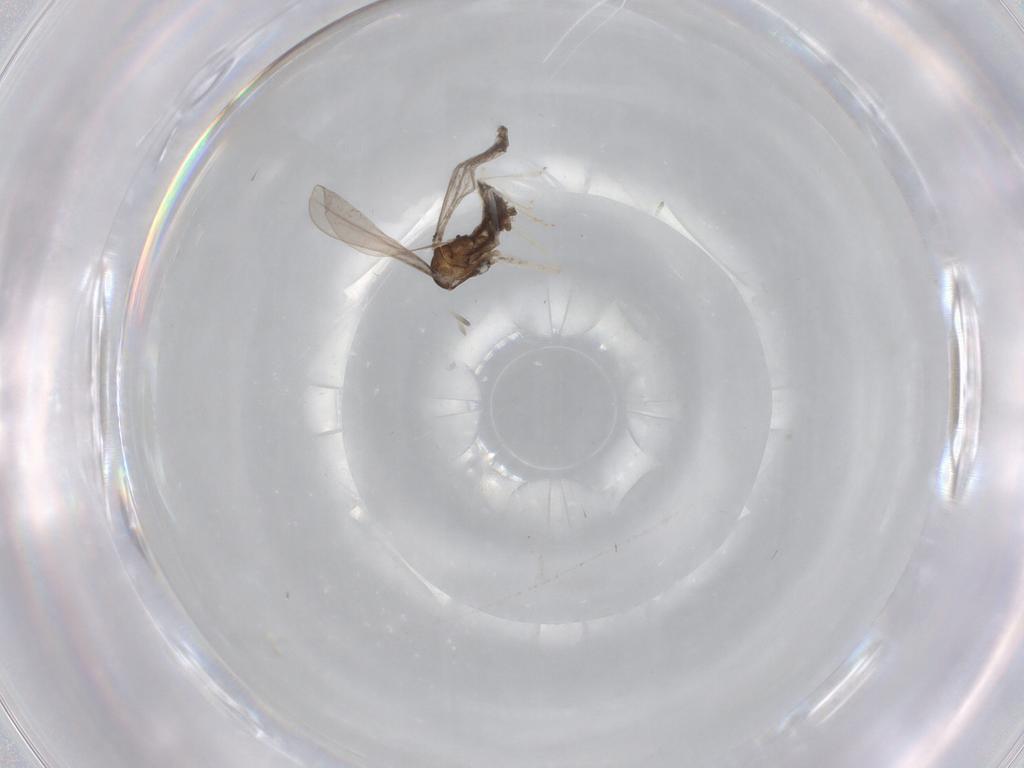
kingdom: Animalia
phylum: Arthropoda
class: Insecta
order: Diptera
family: Cecidomyiidae
